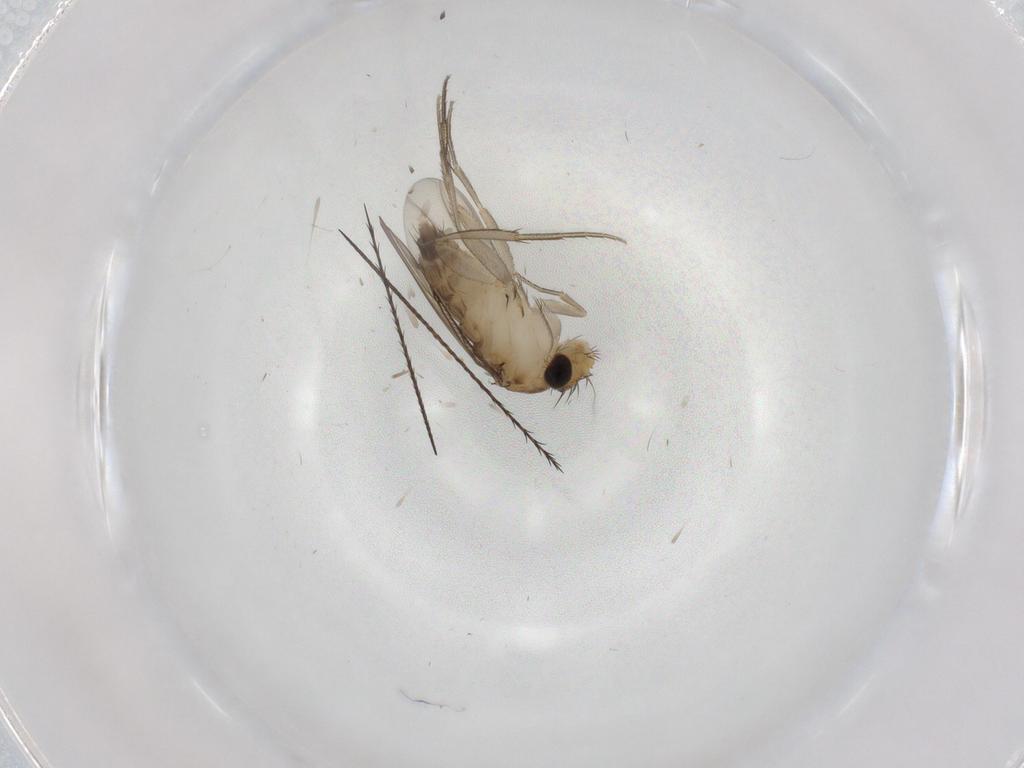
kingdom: Animalia
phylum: Arthropoda
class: Insecta
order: Diptera
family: Phoridae
